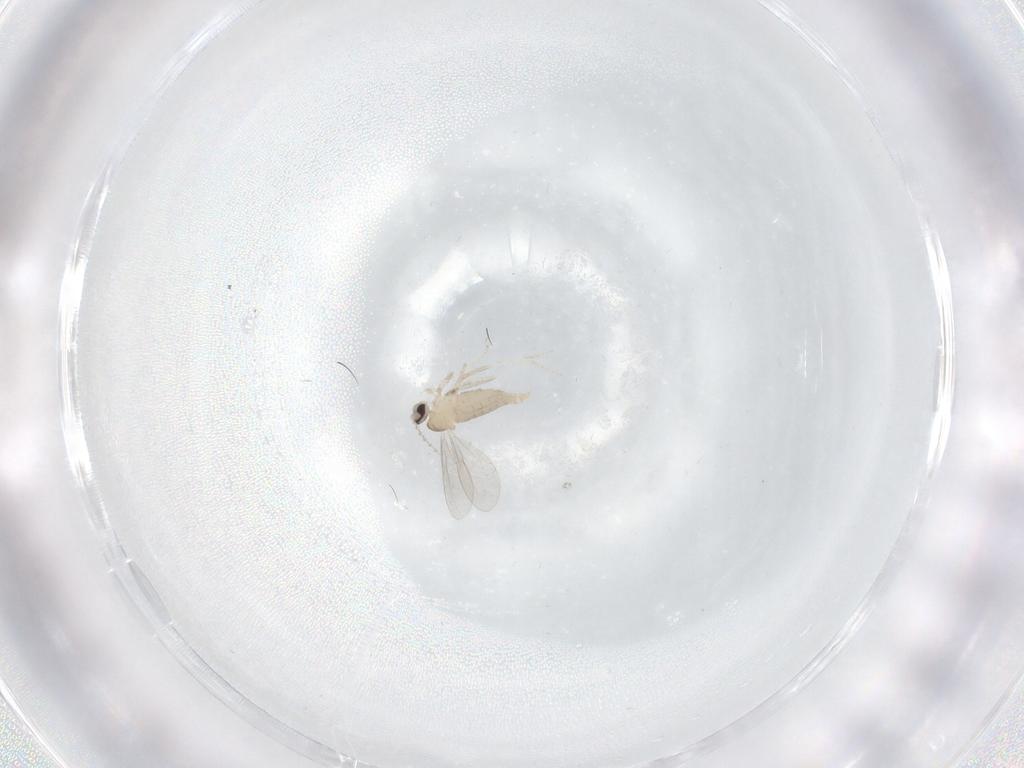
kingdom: Animalia
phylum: Arthropoda
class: Insecta
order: Diptera
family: Cecidomyiidae
